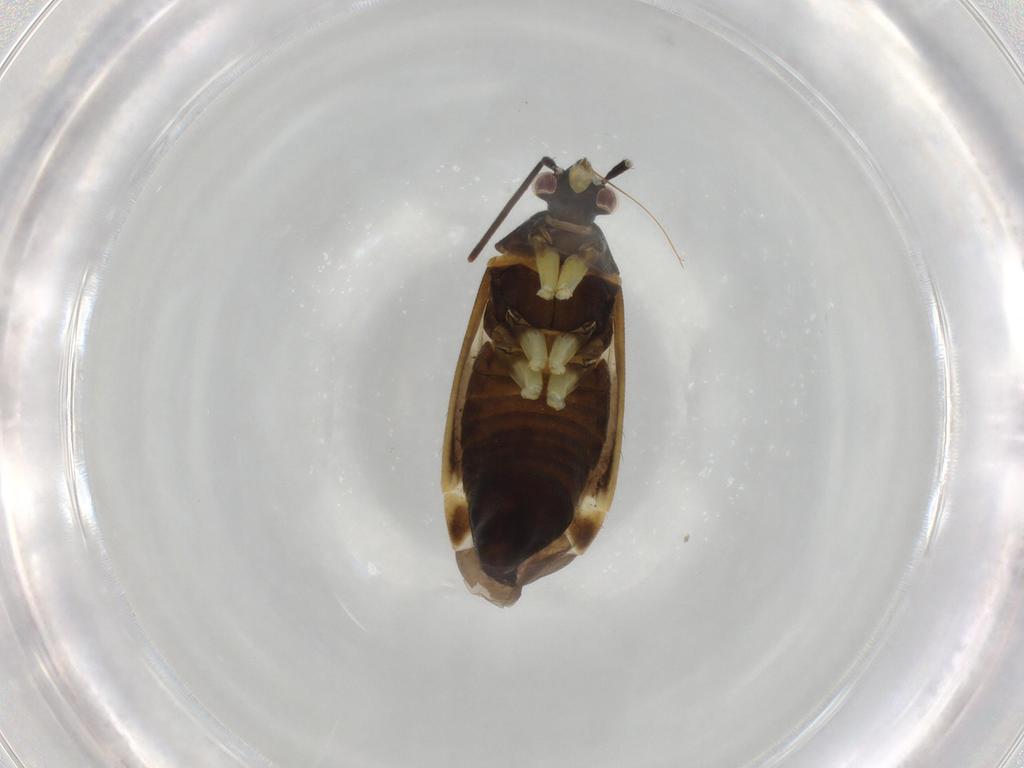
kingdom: Animalia
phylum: Arthropoda
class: Insecta
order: Hemiptera
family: Miridae
